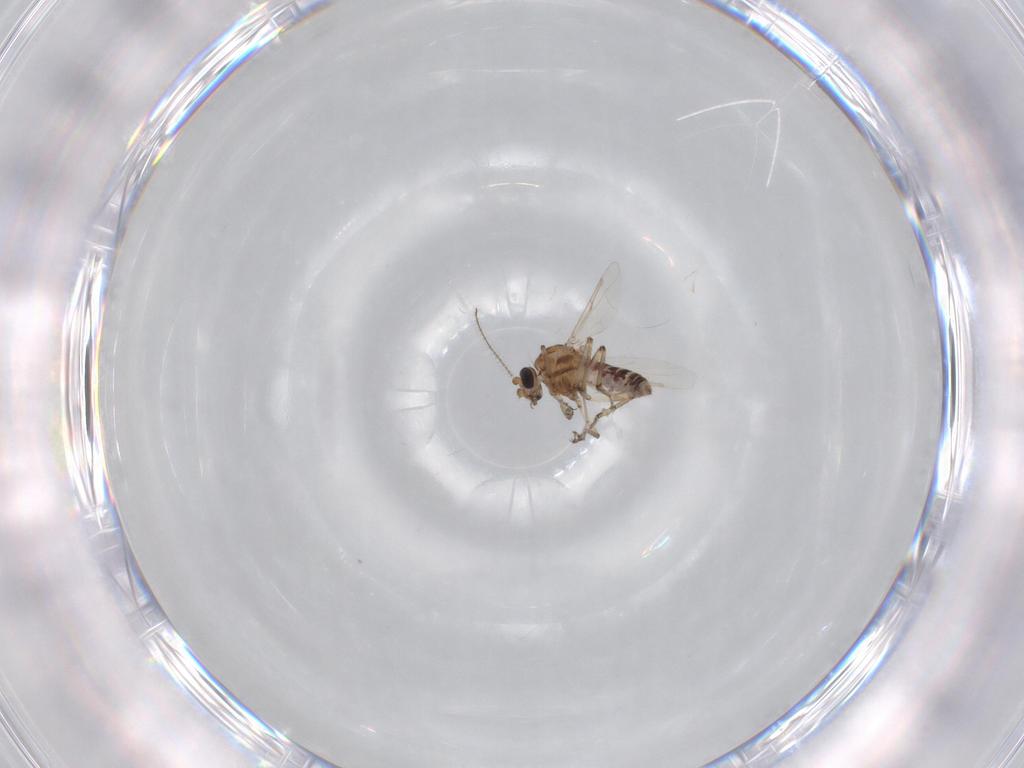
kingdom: Animalia
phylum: Arthropoda
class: Insecta
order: Diptera
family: Ceratopogonidae
